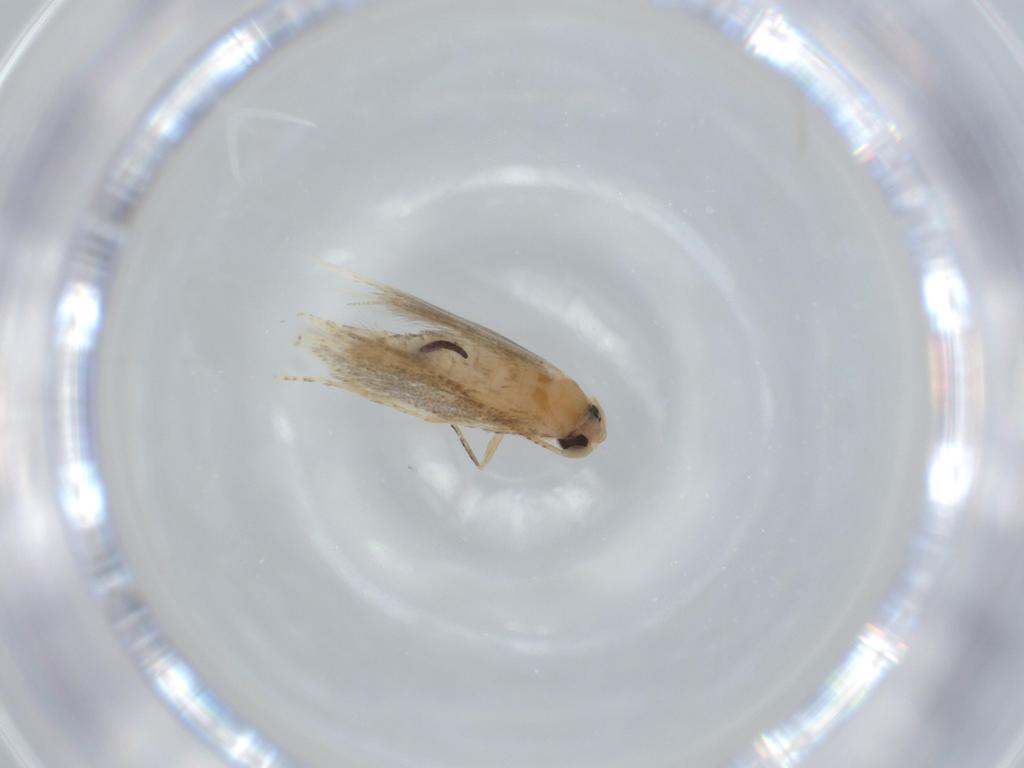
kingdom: Animalia
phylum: Arthropoda
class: Insecta
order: Lepidoptera
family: Bucculatricidae
